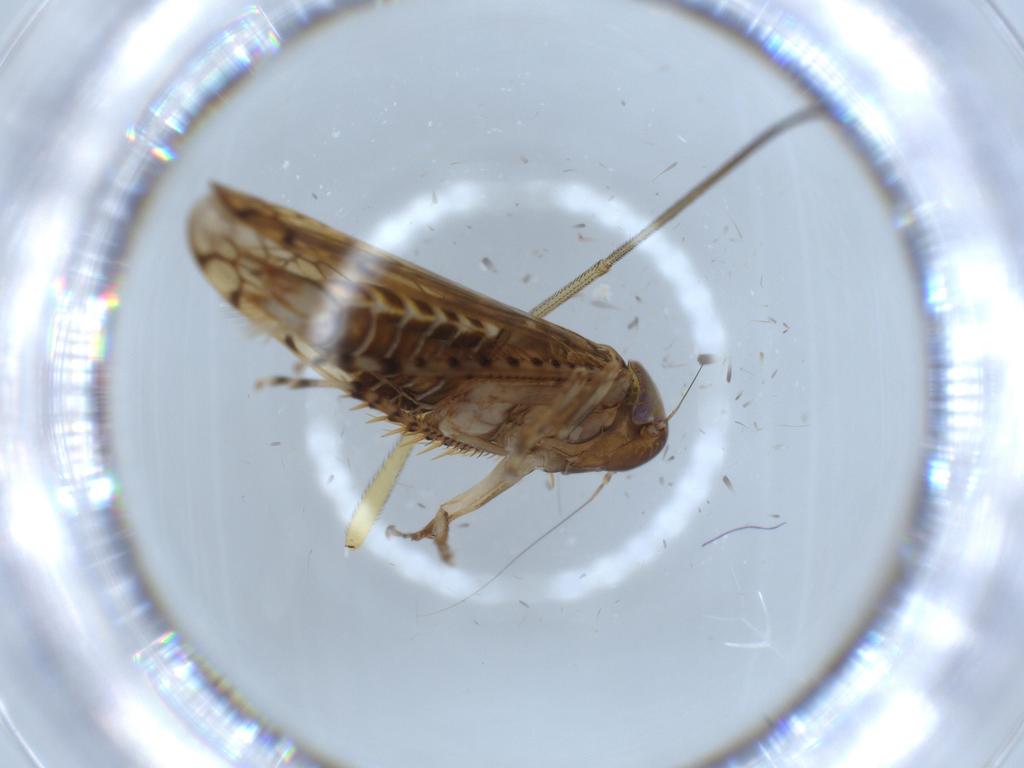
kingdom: Animalia
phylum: Arthropoda
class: Insecta
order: Hemiptera
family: Cicadellidae
